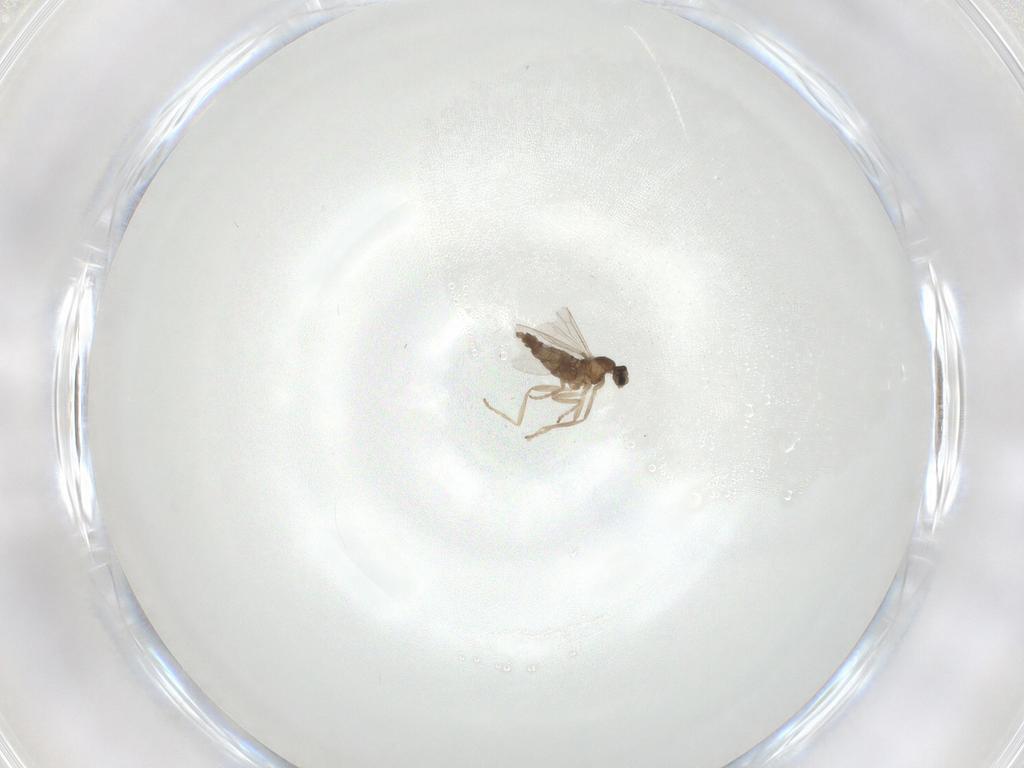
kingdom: Animalia
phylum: Arthropoda
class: Insecta
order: Diptera
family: Cecidomyiidae
